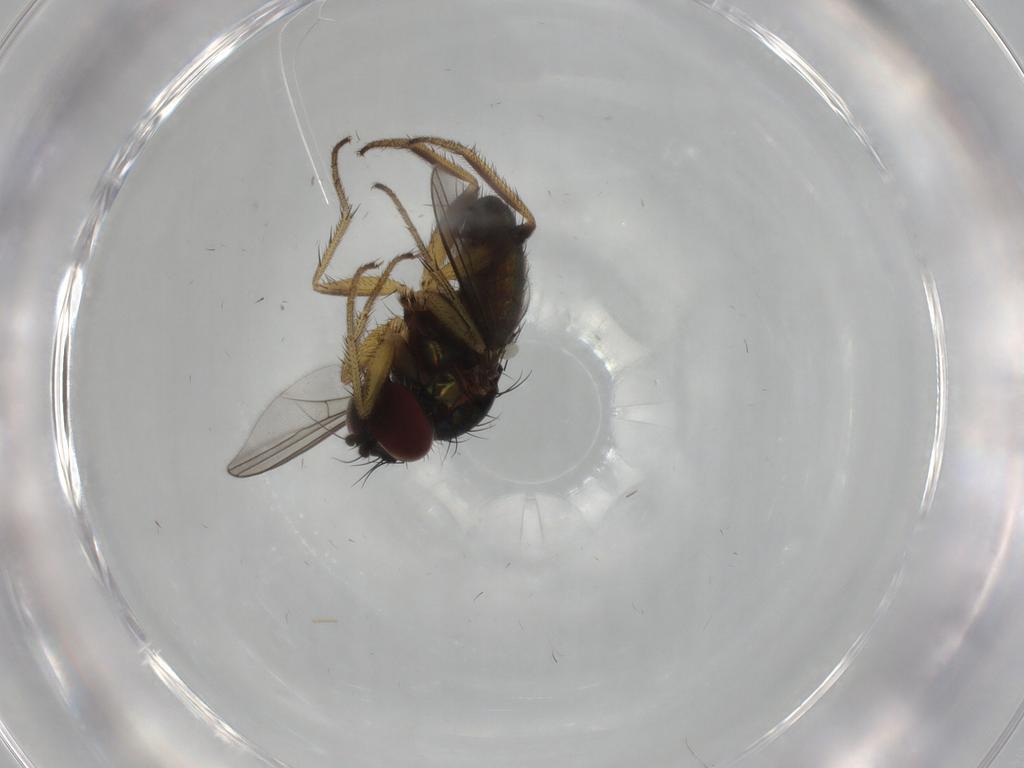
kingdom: Animalia
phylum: Arthropoda
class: Insecta
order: Diptera
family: Dolichopodidae
